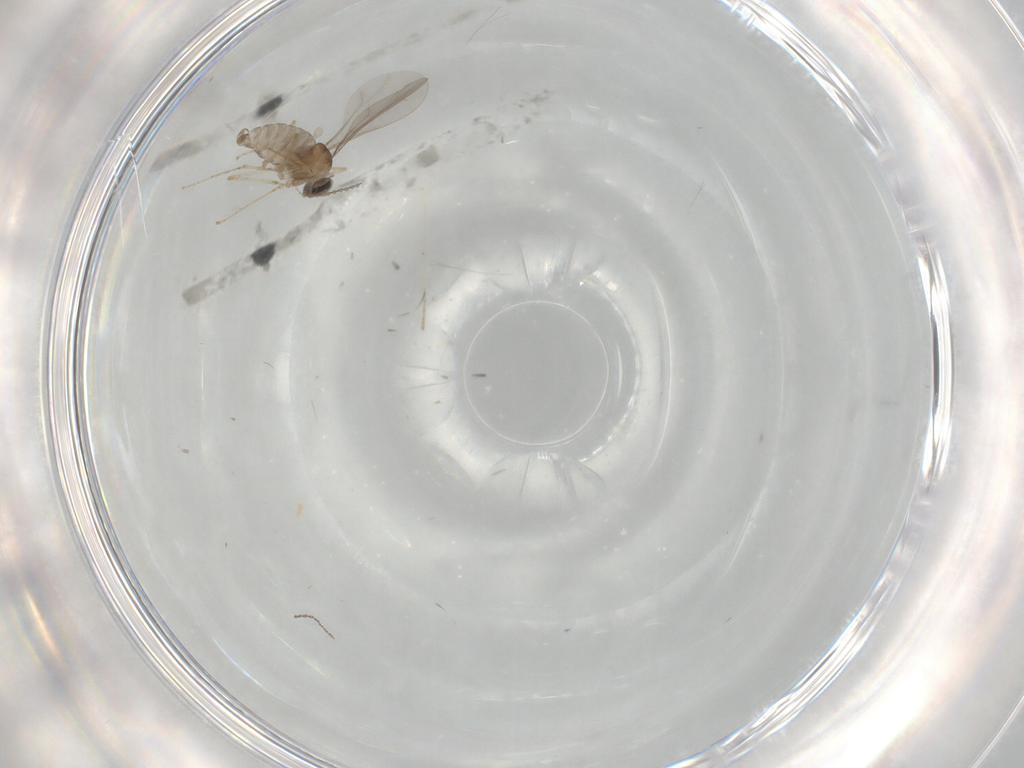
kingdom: Animalia
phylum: Arthropoda
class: Insecta
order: Diptera
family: Cecidomyiidae
